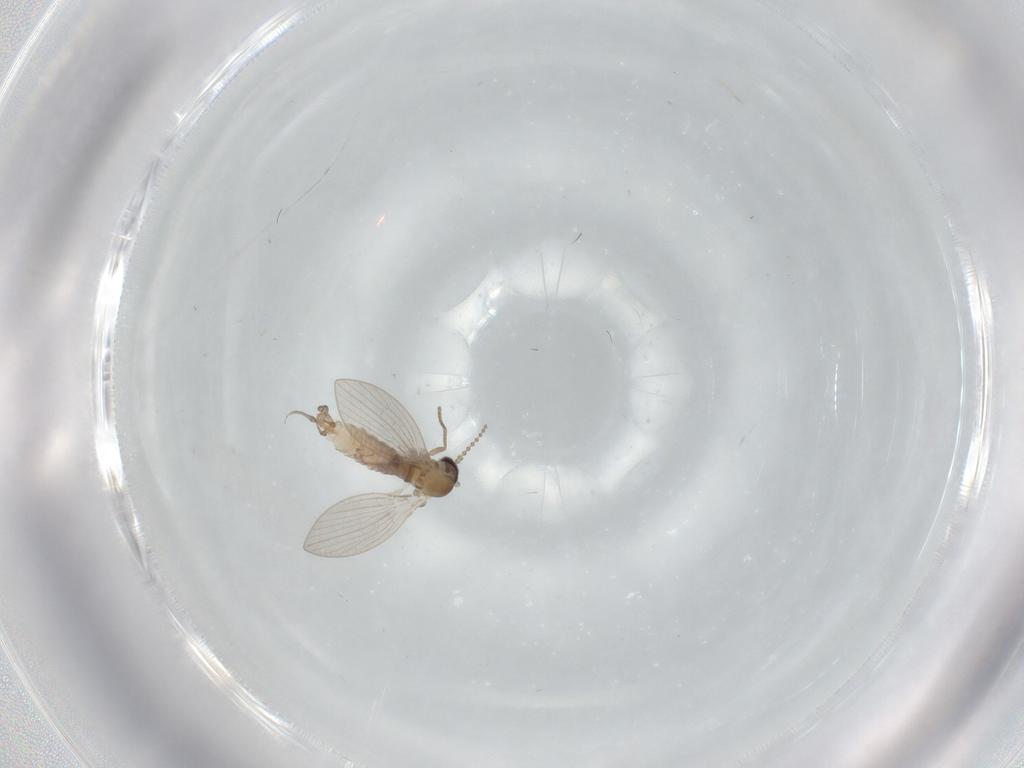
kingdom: Animalia
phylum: Arthropoda
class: Insecta
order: Diptera
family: Psychodidae
